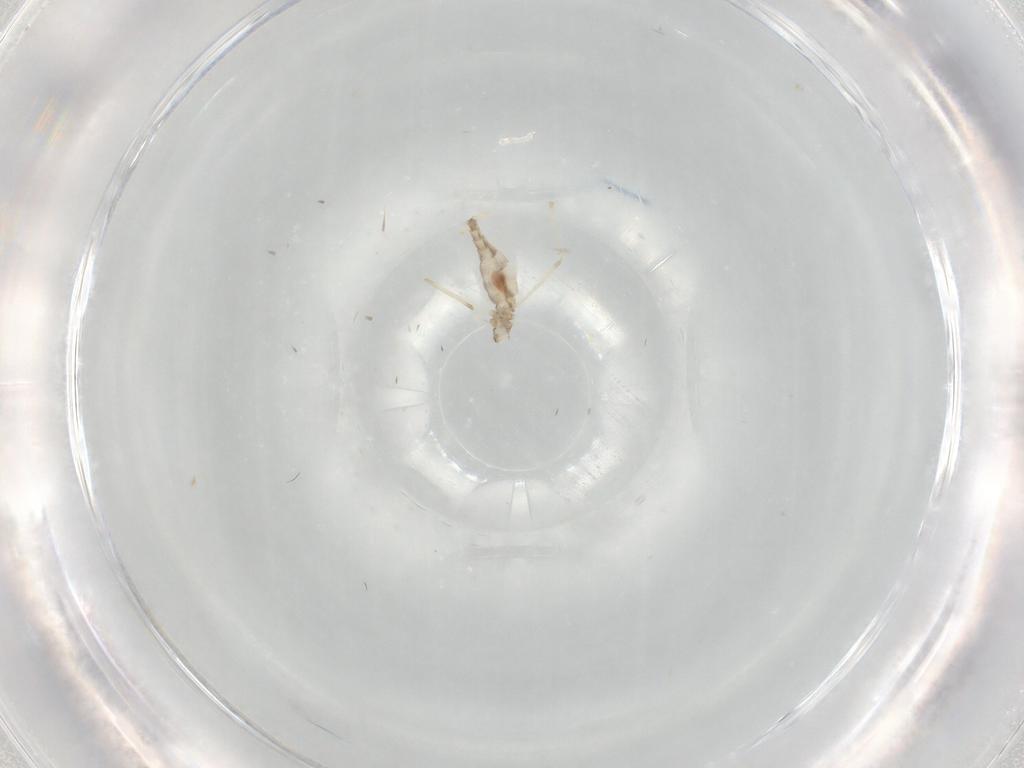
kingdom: Animalia
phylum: Arthropoda
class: Insecta
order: Diptera
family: Cecidomyiidae
